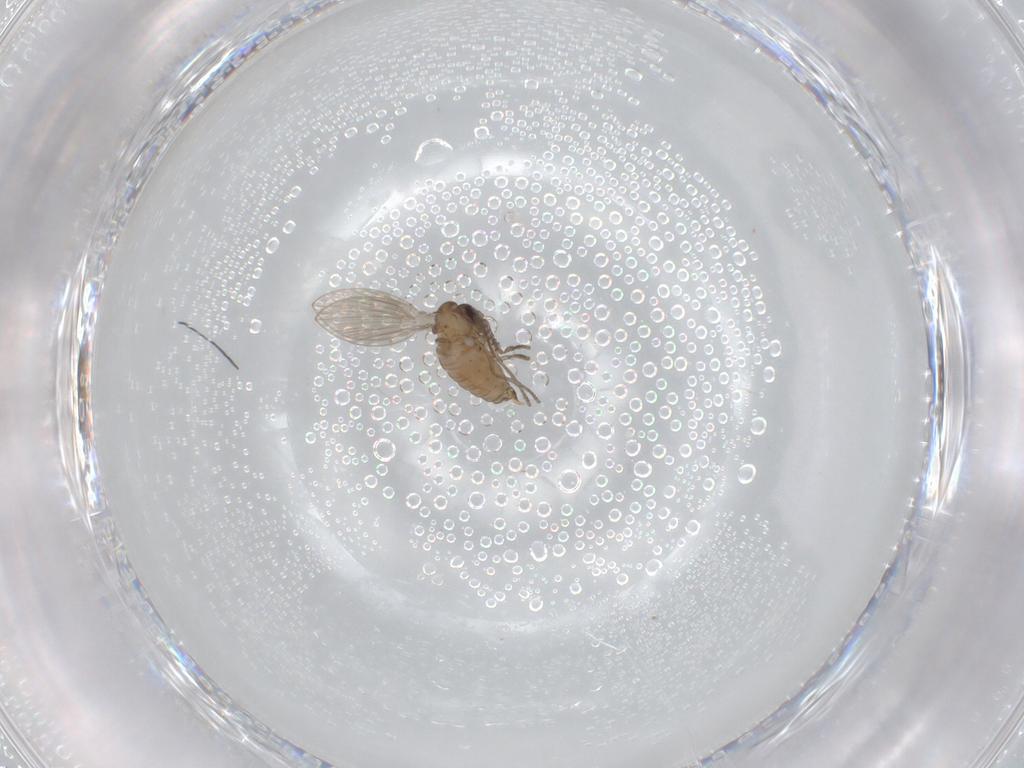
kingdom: Animalia
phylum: Arthropoda
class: Insecta
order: Diptera
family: Psychodidae
